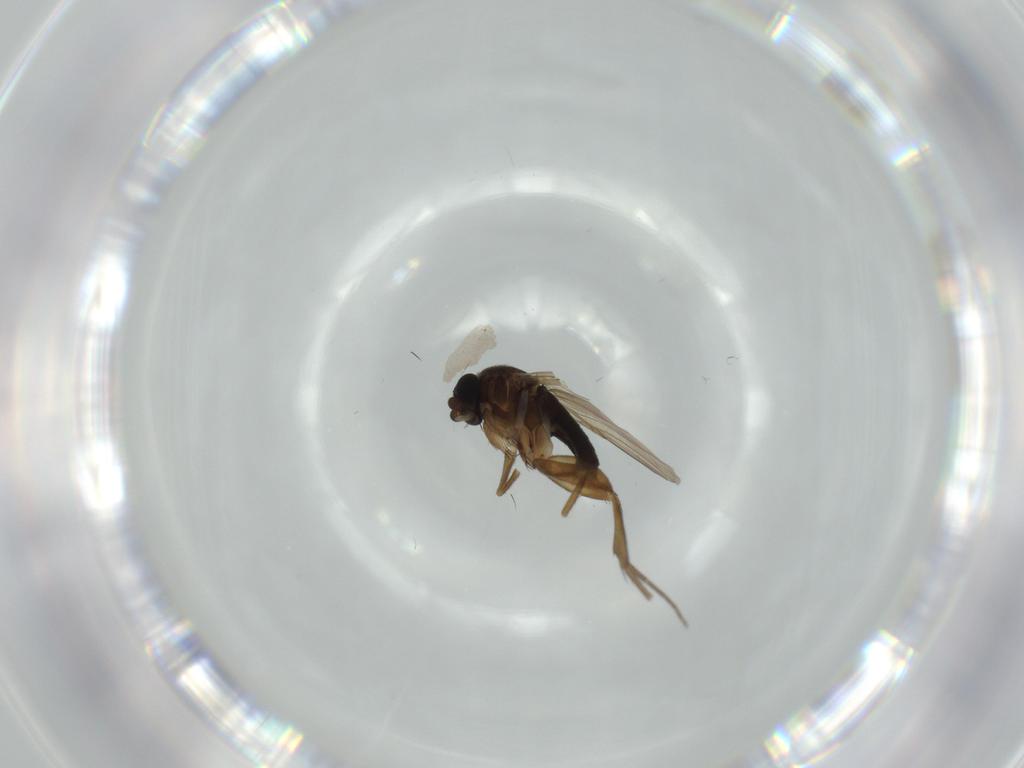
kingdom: Animalia
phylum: Arthropoda
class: Insecta
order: Diptera
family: Phoridae
